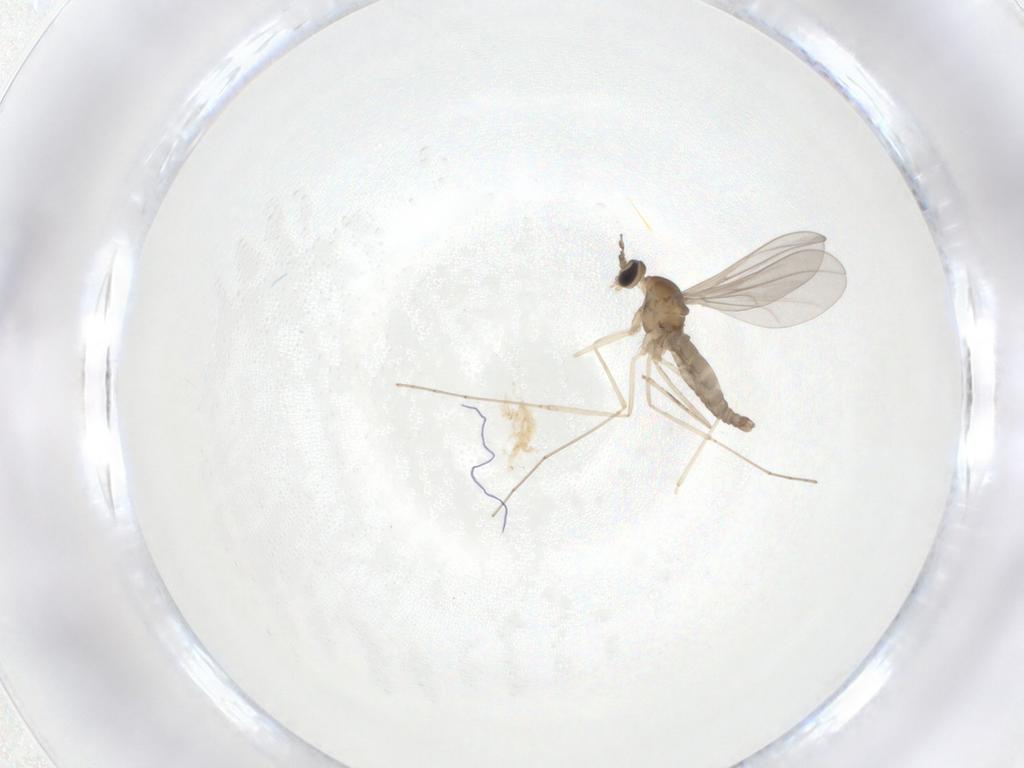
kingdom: Animalia
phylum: Arthropoda
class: Insecta
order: Diptera
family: Cecidomyiidae
